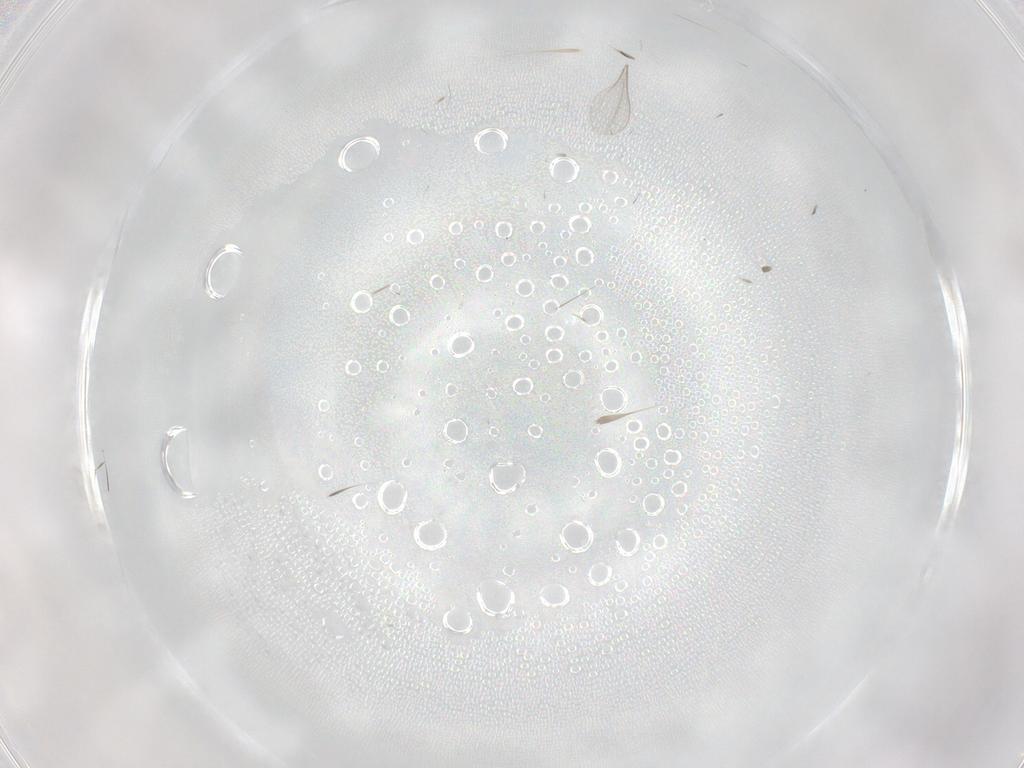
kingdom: Animalia
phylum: Arthropoda
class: Insecta
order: Diptera
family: Cecidomyiidae
